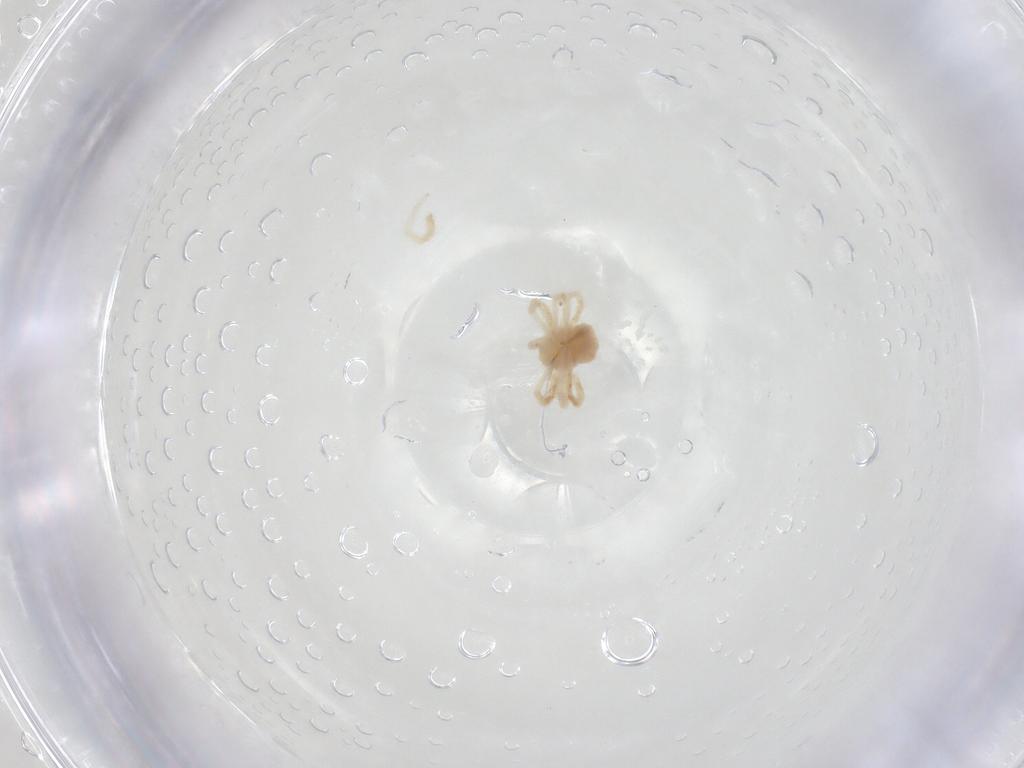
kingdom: Animalia
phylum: Arthropoda
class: Arachnida
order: Trombidiformes
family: Anystidae
